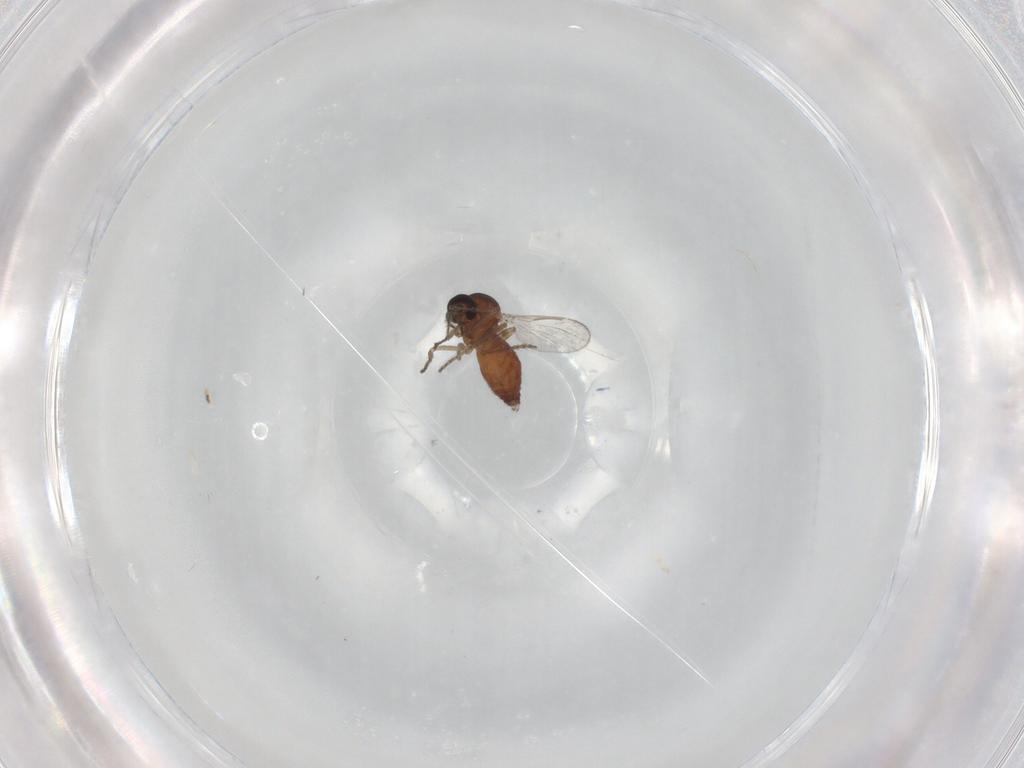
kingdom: Animalia
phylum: Arthropoda
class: Insecta
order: Diptera
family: Ceratopogonidae
